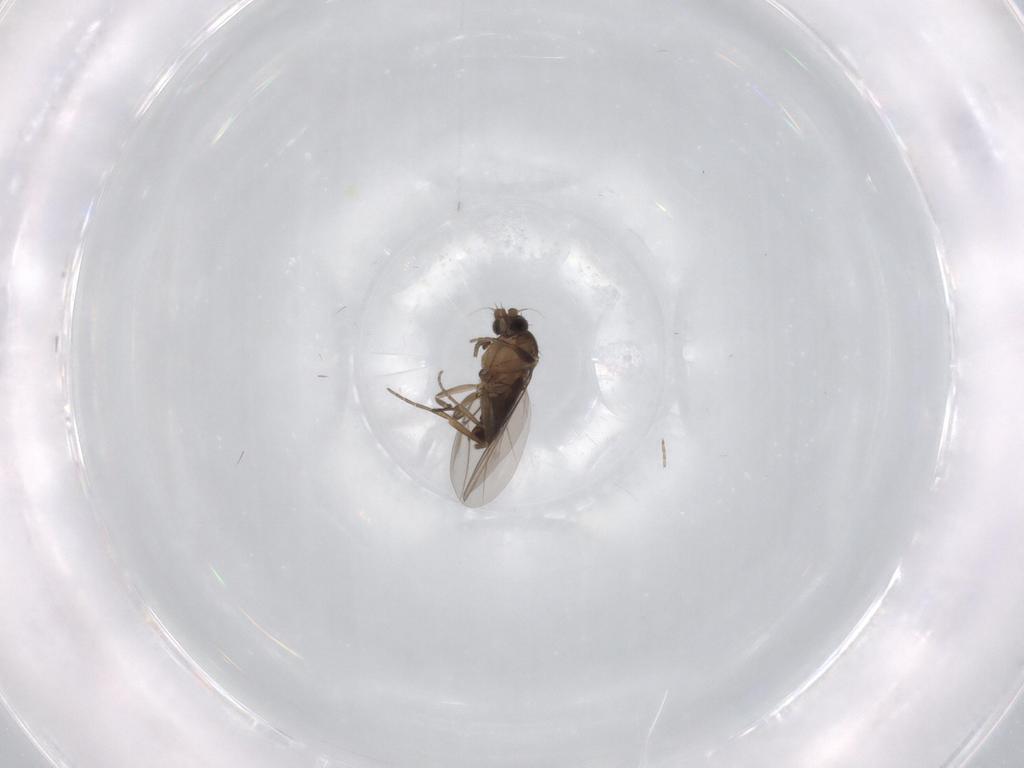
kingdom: Animalia
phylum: Arthropoda
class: Insecta
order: Diptera
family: Phoridae
